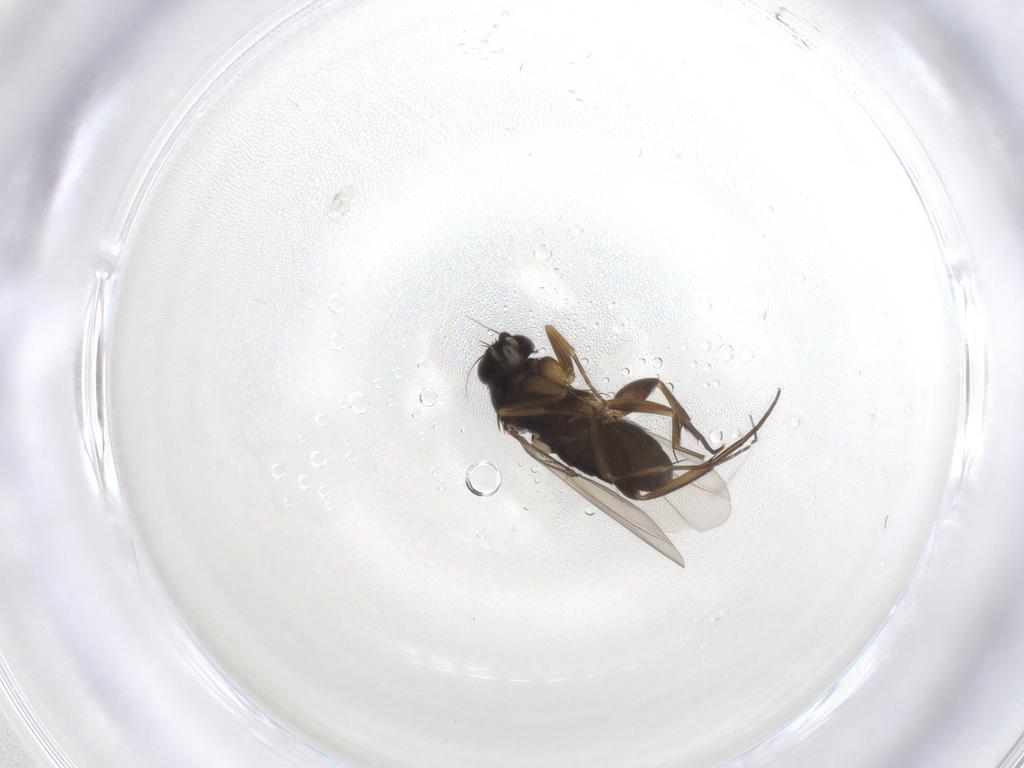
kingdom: Animalia
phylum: Arthropoda
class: Insecta
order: Diptera
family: Phoridae
